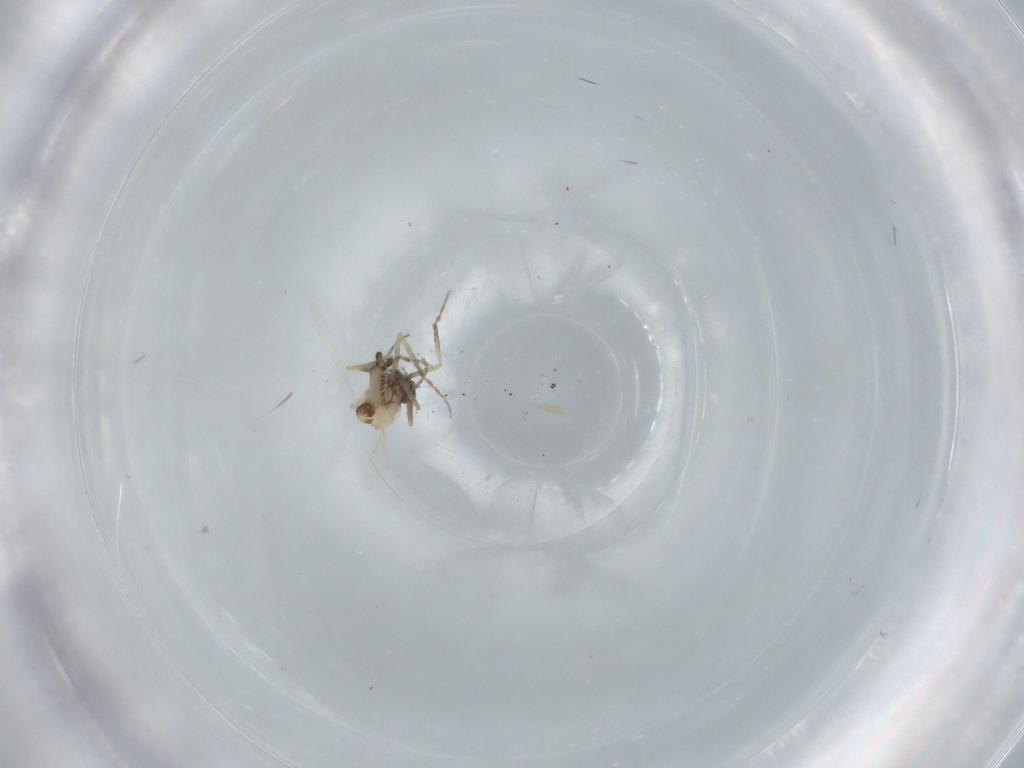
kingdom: Animalia
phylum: Arthropoda
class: Insecta
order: Diptera
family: Ceratopogonidae
